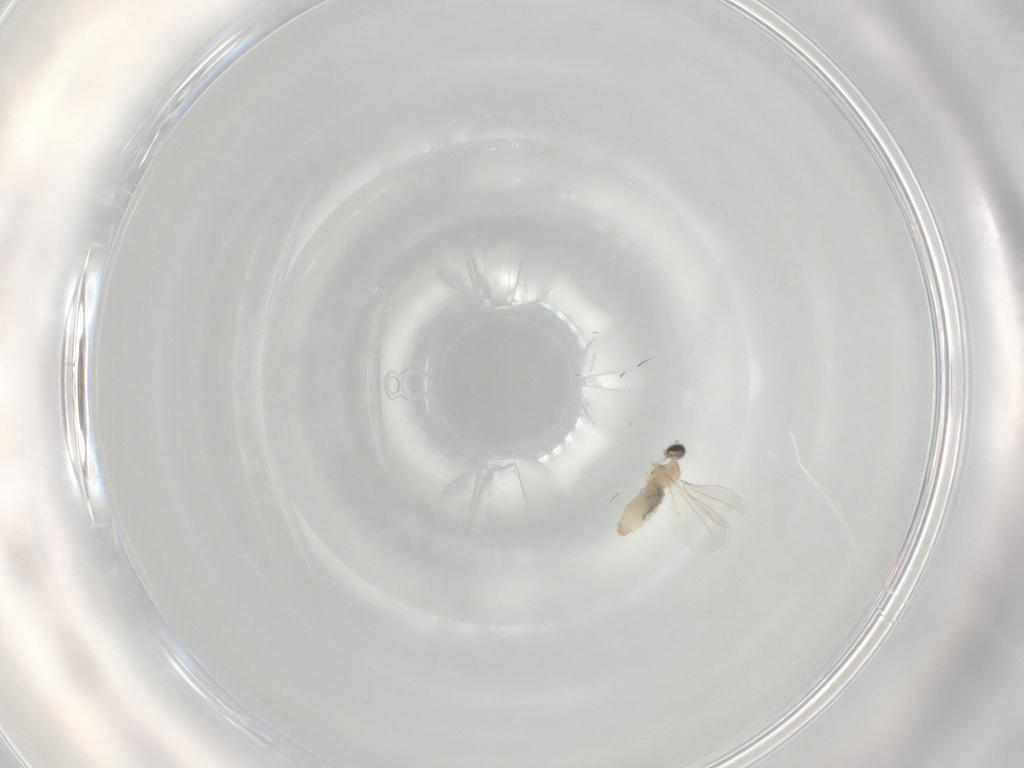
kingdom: Animalia
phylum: Arthropoda
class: Insecta
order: Diptera
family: Cecidomyiidae
